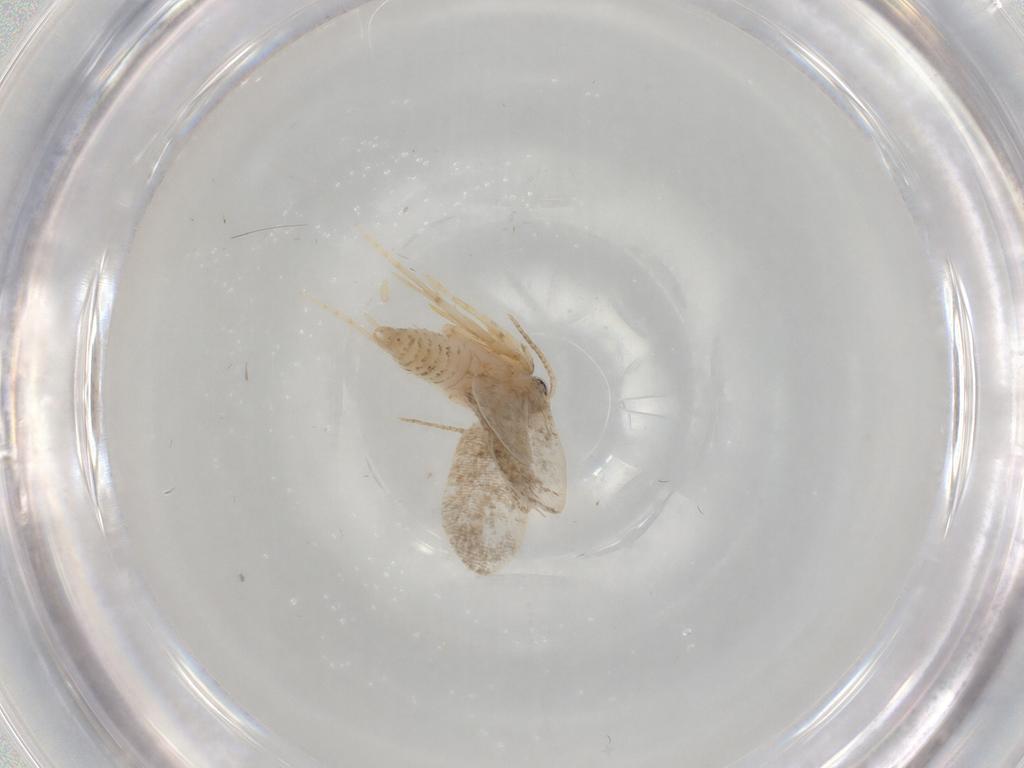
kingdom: Animalia
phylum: Arthropoda
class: Insecta
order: Lepidoptera
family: Psychidae
